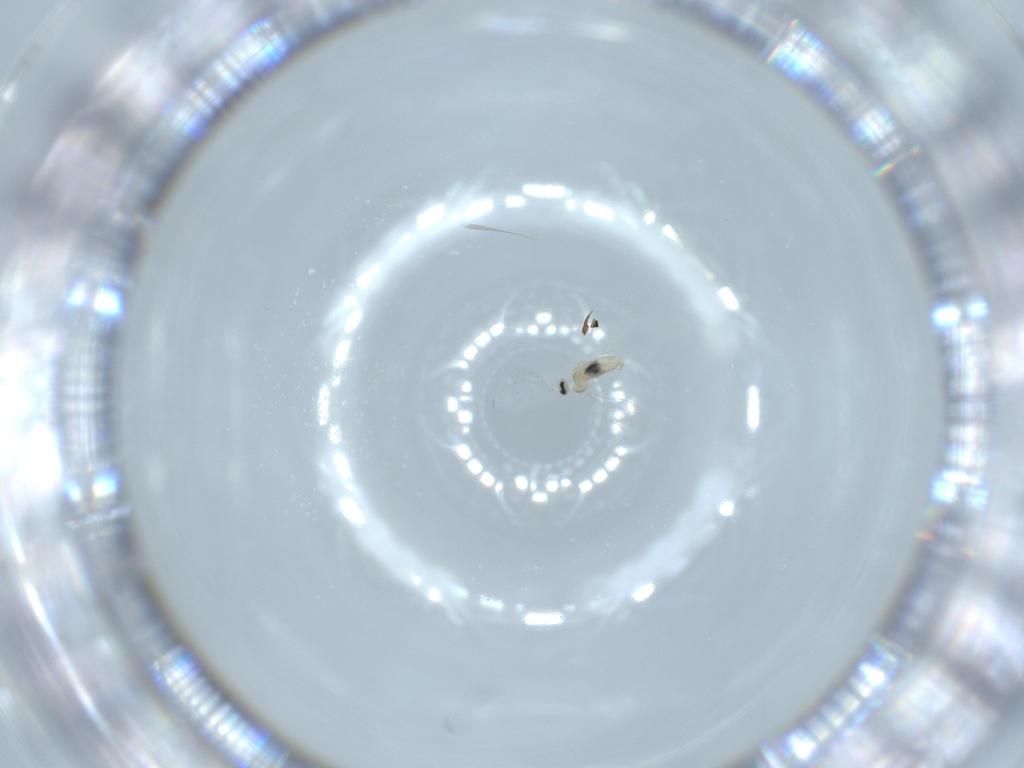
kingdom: Animalia
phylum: Arthropoda
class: Insecta
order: Diptera
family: Cecidomyiidae
